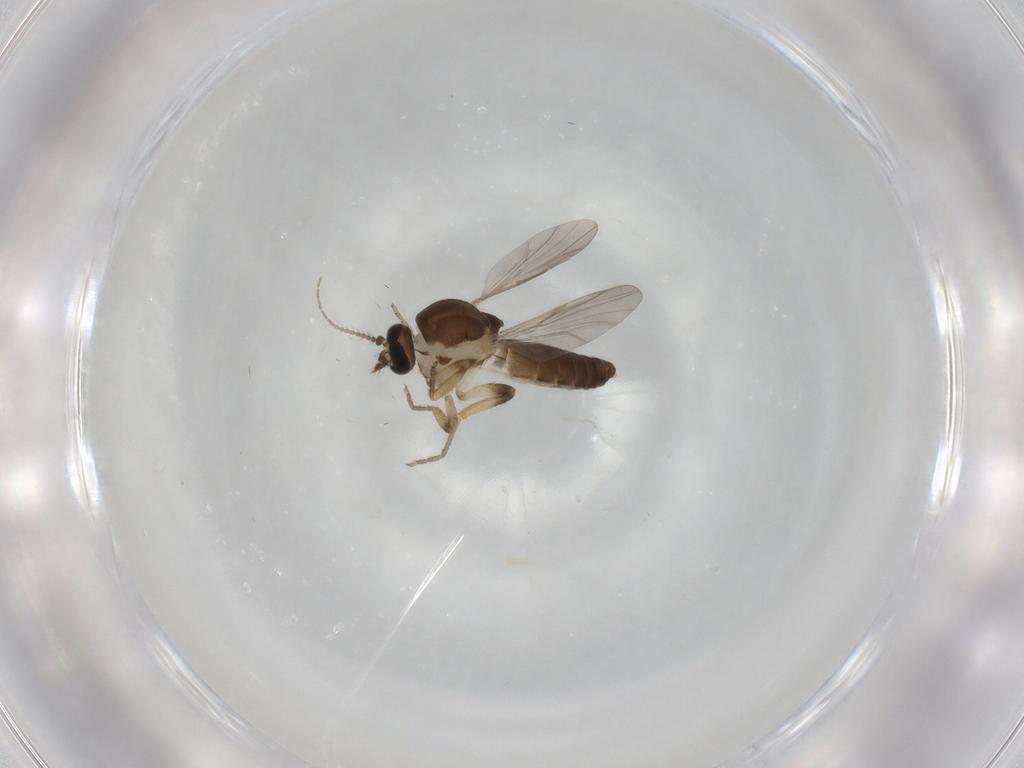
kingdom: Animalia
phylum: Arthropoda
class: Insecta
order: Diptera
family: Ceratopogonidae
